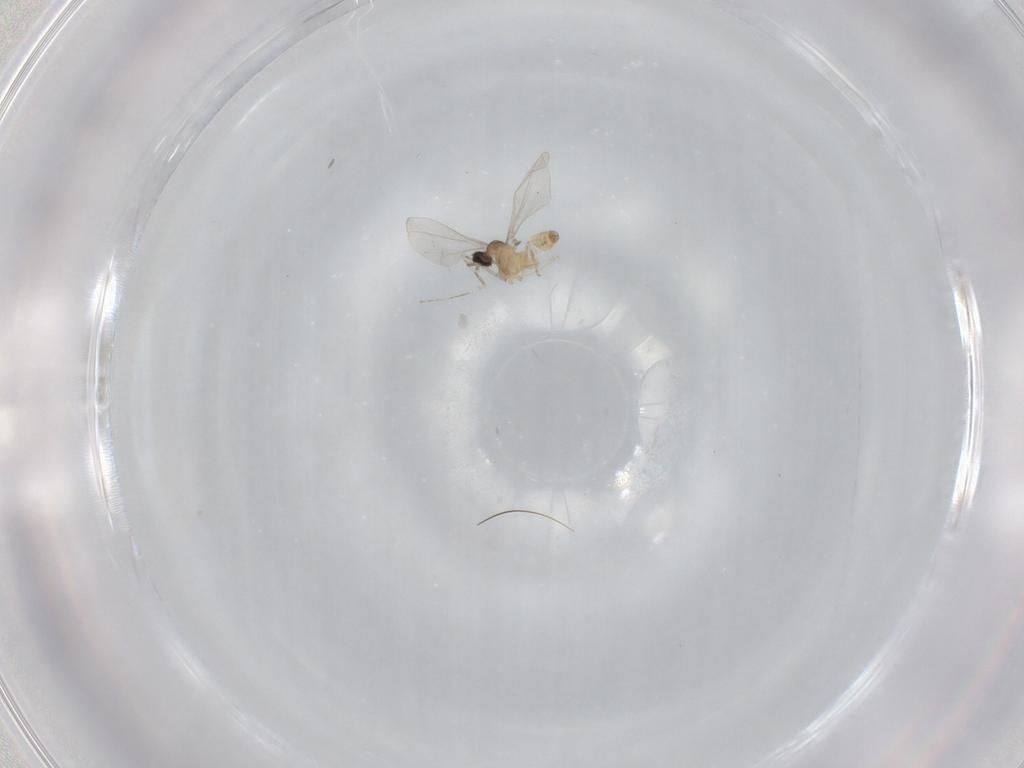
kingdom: Animalia
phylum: Arthropoda
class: Insecta
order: Diptera
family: Cecidomyiidae
